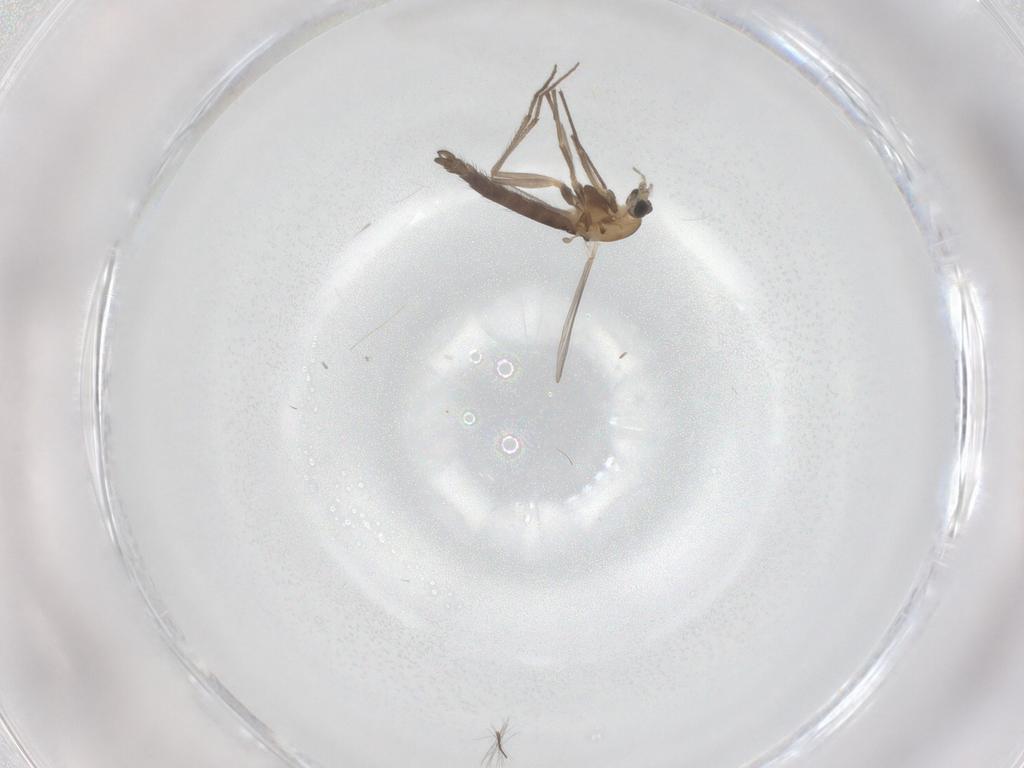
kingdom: Animalia
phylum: Arthropoda
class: Insecta
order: Diptera
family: Chironomidae
